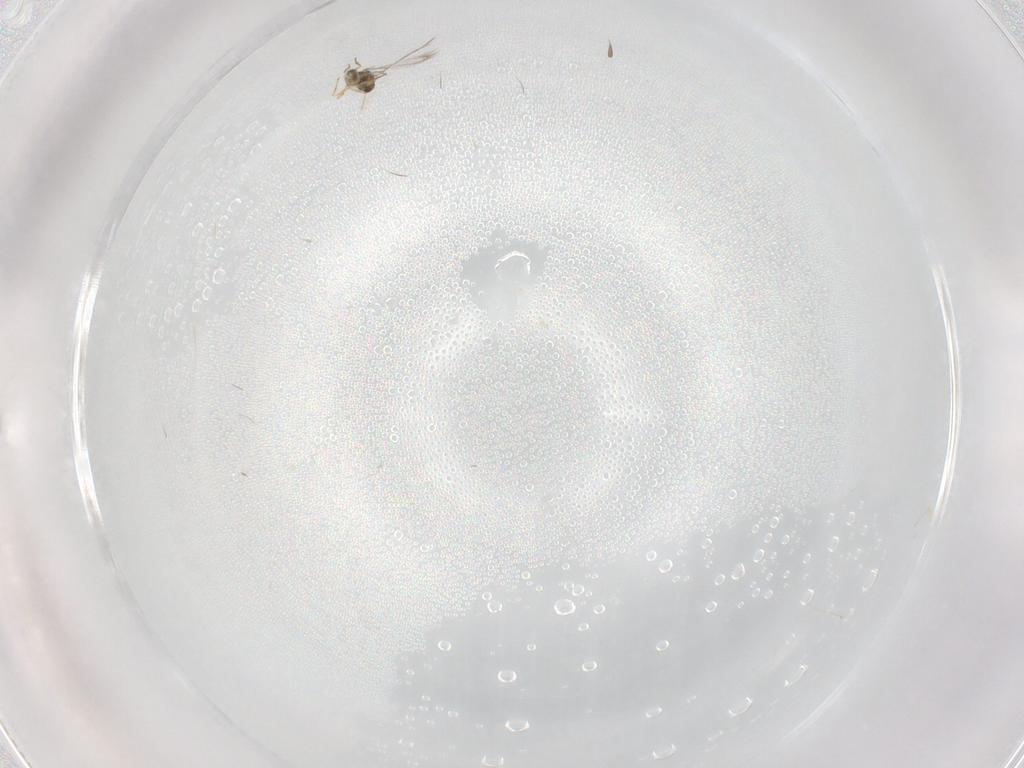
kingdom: Animalia
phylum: Arthropoda
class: Insecta
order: Hymenoptera
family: Mymaridae
